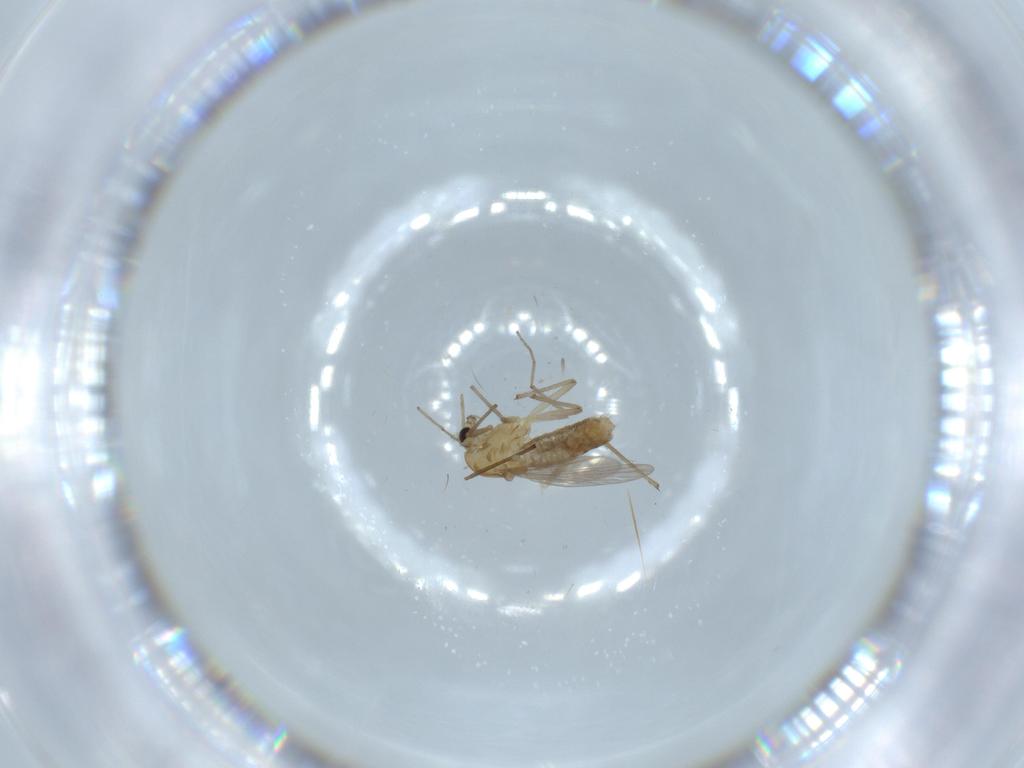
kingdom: Animalia
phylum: Arthropoda
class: Insecta
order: Diptera
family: Chironomidae
